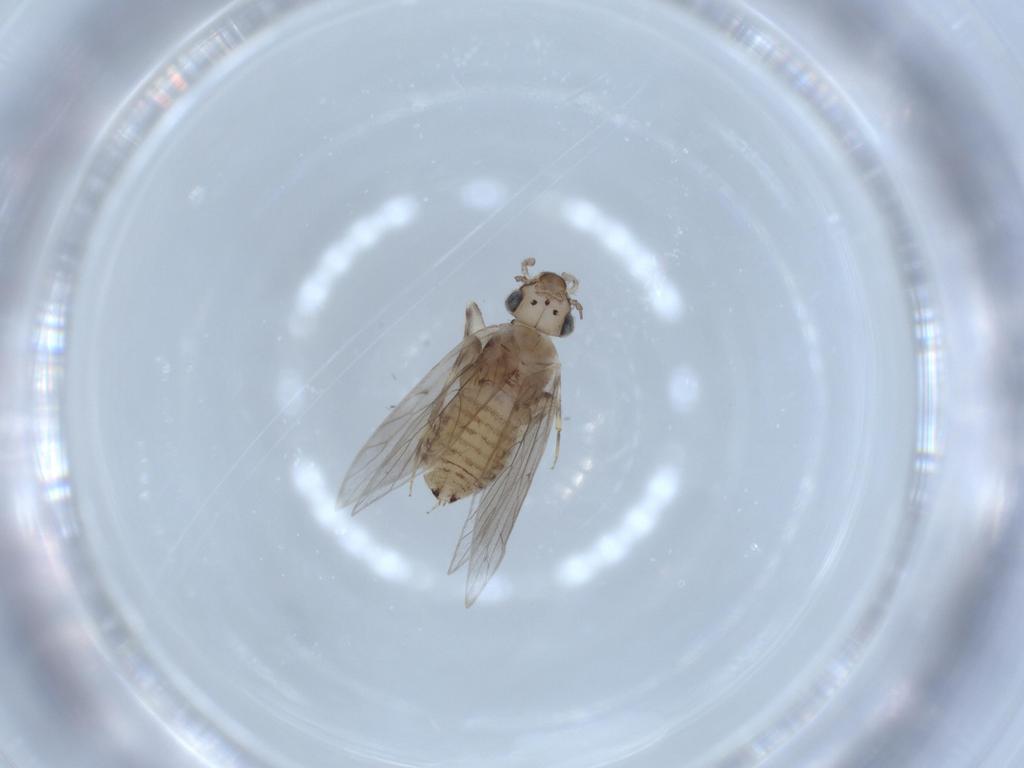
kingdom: Animalia
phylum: Arthropoda
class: Insecta
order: Psocodea
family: Lepidopsocidae
